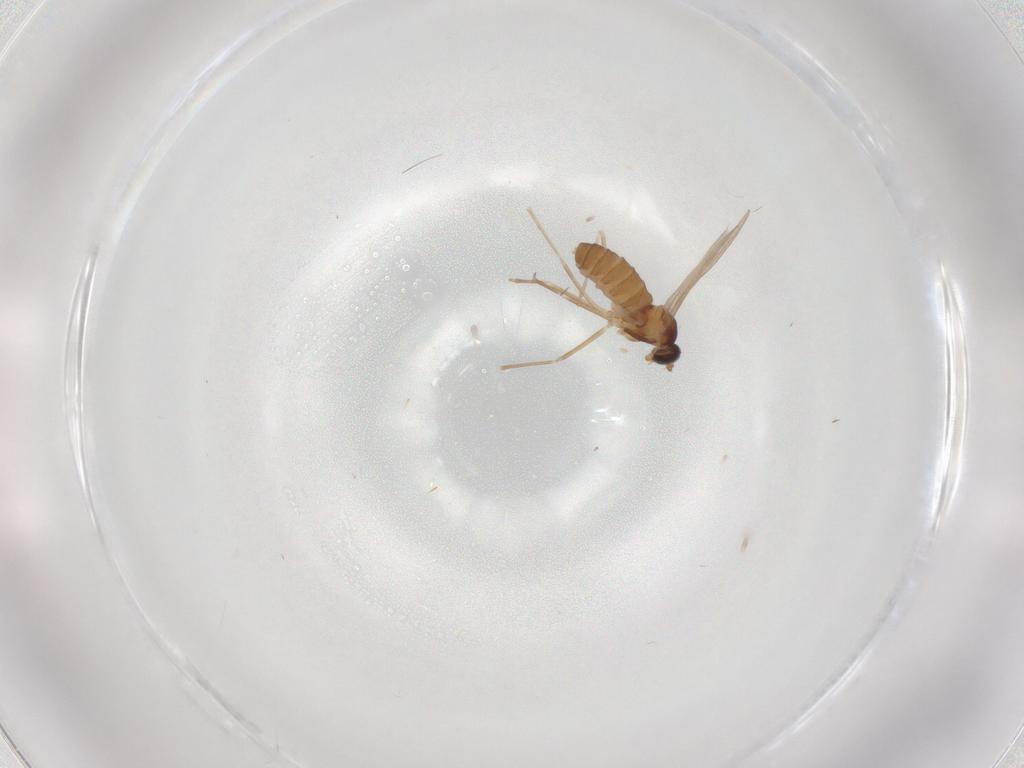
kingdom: Animalia
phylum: Arthropoda
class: Insecta
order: Diptera
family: Cecidomyiidae
